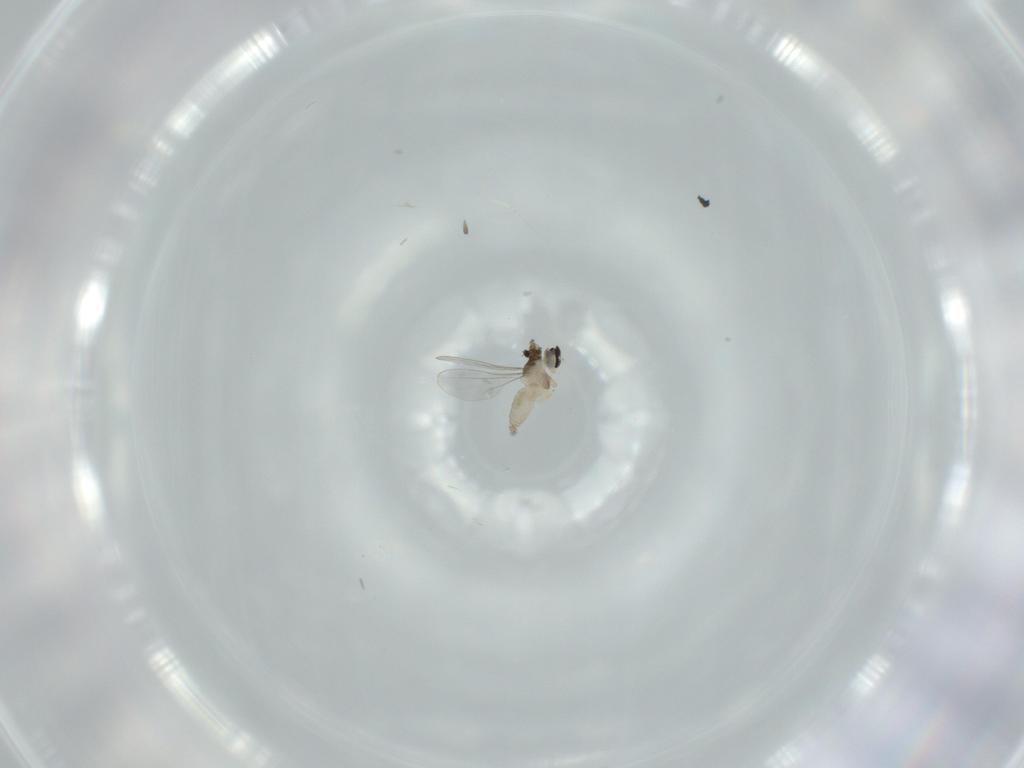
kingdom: Animalia
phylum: Arthropoda
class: Insecta
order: Diptera
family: Cecidomyiidae
